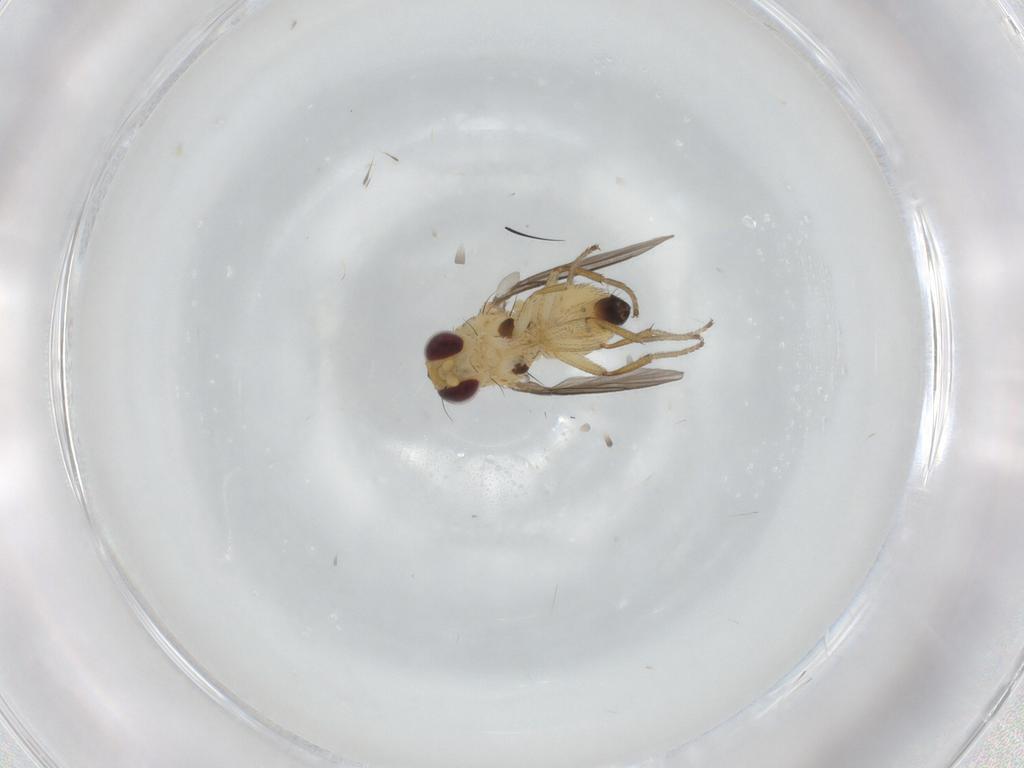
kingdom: Animalia
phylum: Arthropoda
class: Insecta
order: Diptera
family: Agromyzidae
